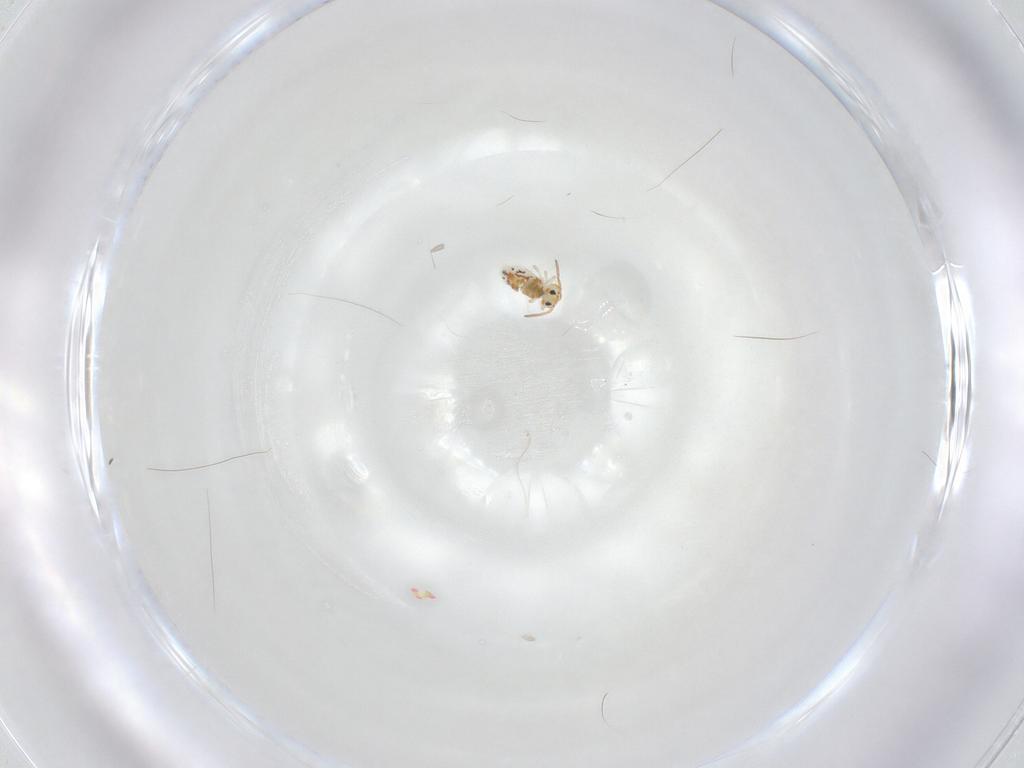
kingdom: Animalia
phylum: Arthropoda
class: Collembola
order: Symphypleona
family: Bourletiellidae
